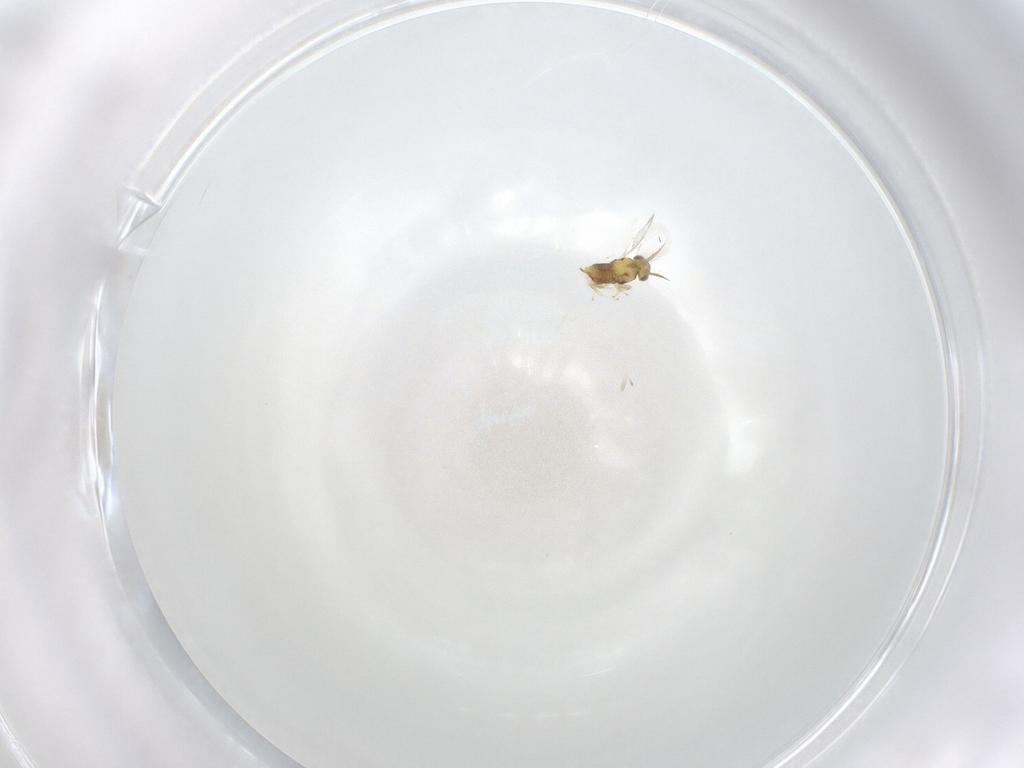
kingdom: Animalia
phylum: Arthropoda
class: Insecta
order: Hymenoptera
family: Aphelinidae
